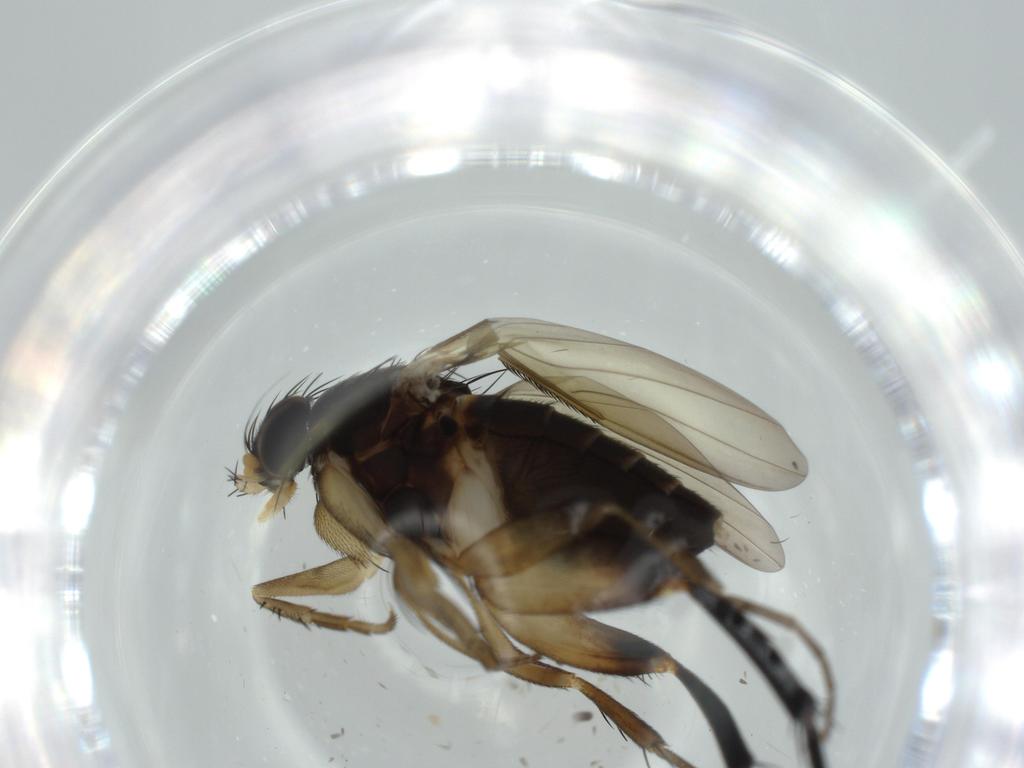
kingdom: Animalia
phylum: Arthropoda
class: Insecta
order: Diptera
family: Phoridae
